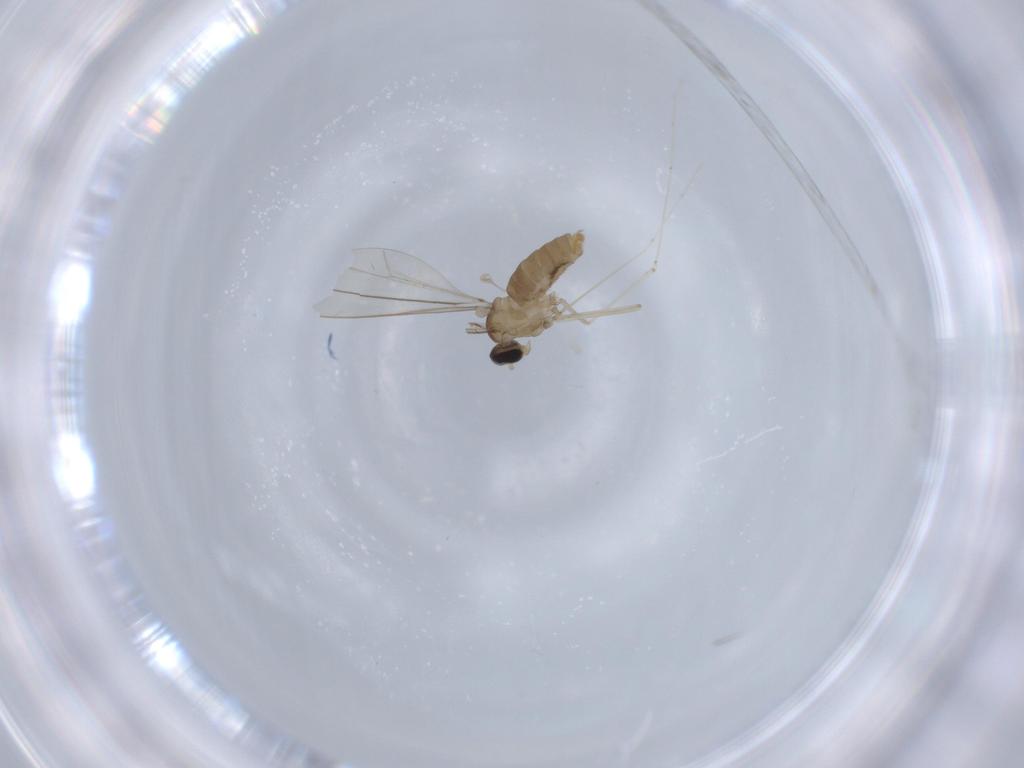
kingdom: Animalia
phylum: Arthropoda
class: Insecta
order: Diptera
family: Cecidomyiidae
